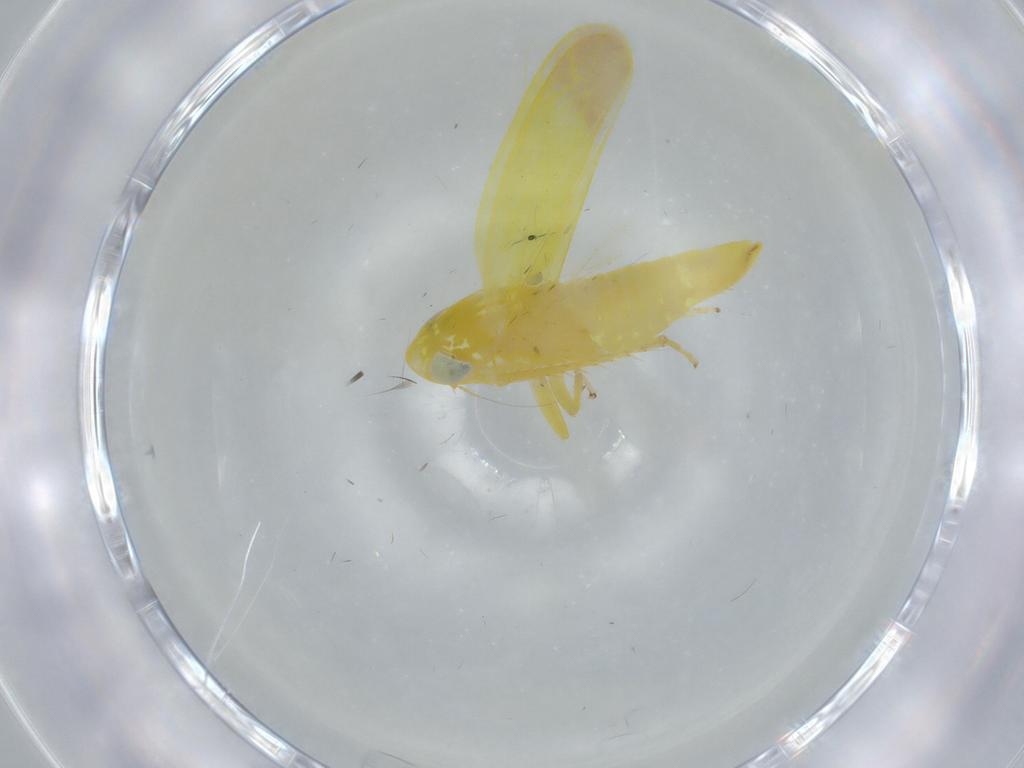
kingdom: Animalia
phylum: Arthropoda
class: Insecta
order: Hemiptera
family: Cicadellidae
